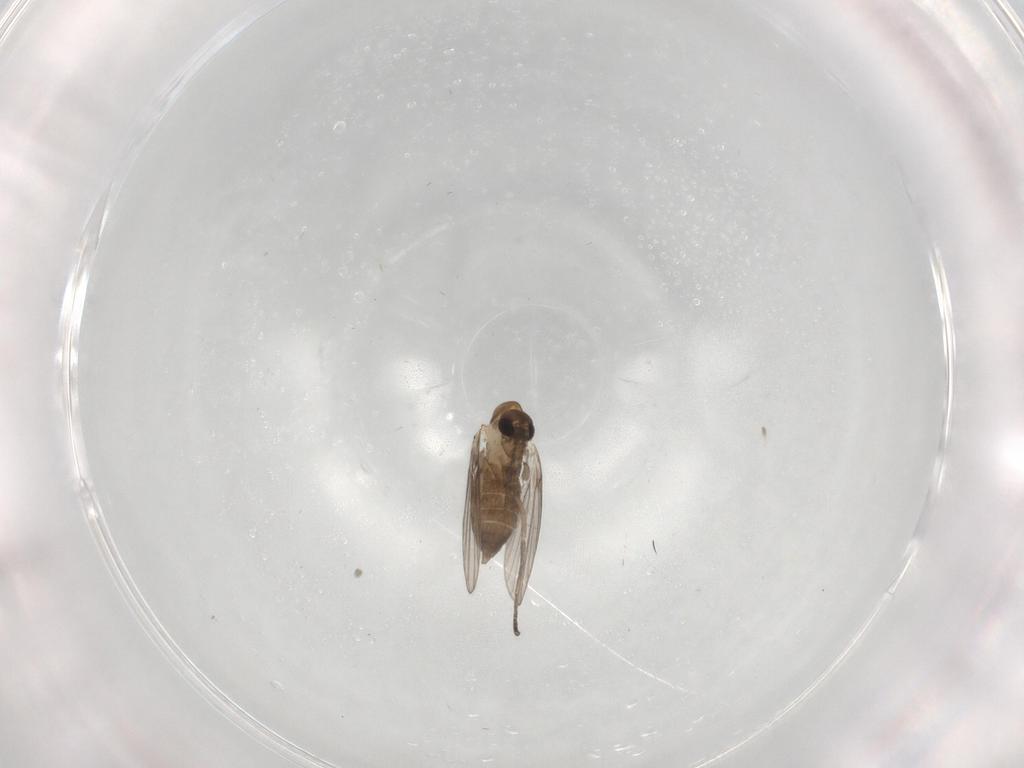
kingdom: Animalia
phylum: Arthropoda
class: Insecta
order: Diptera
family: Psychodidae
